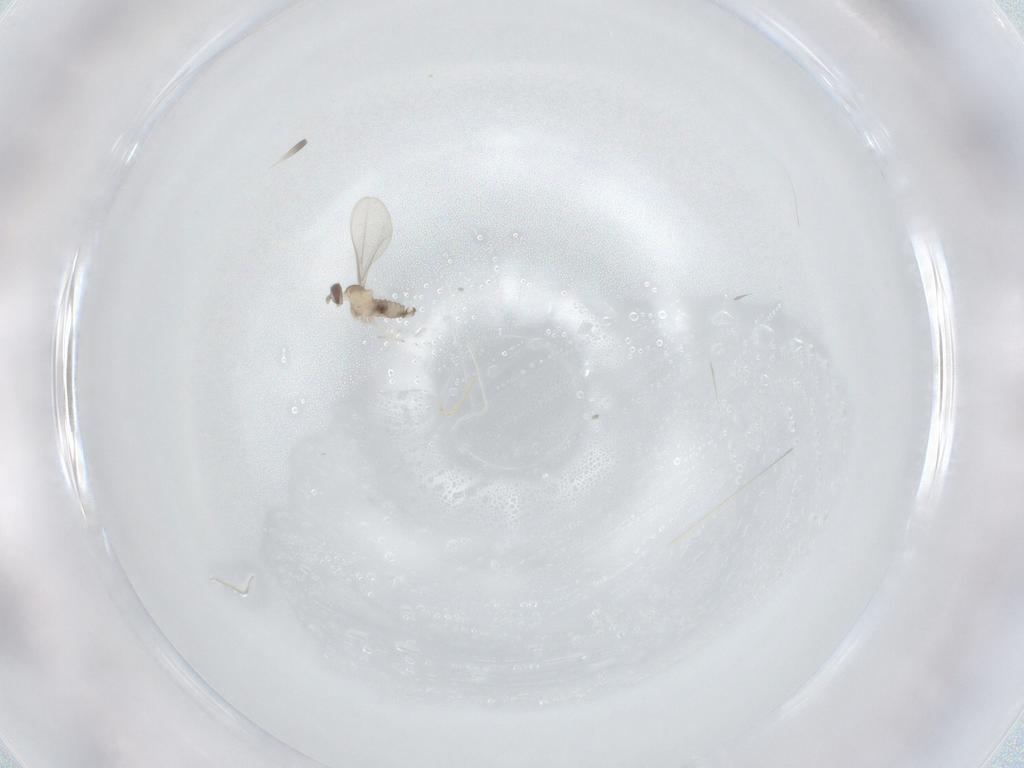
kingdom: Animalia
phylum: Arthropoda
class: Insecta
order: Diptera
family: Cecidomyiidae
